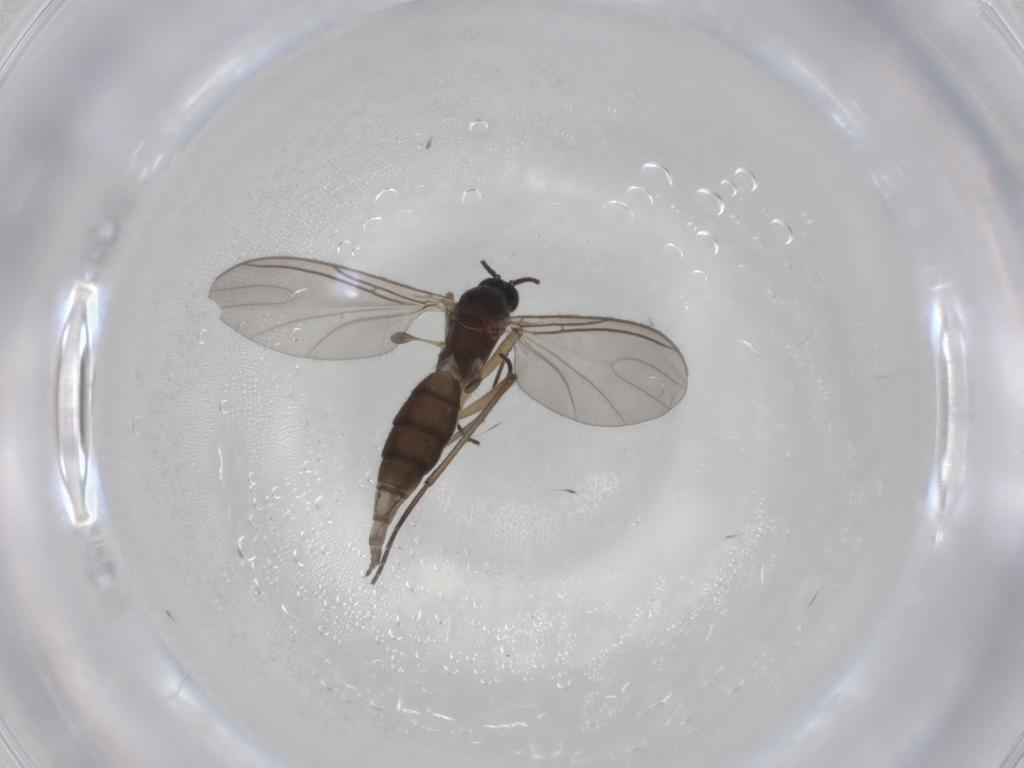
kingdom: Animalia
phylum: Arthropoda
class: Insecta
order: Diptera
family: Sciaridae
